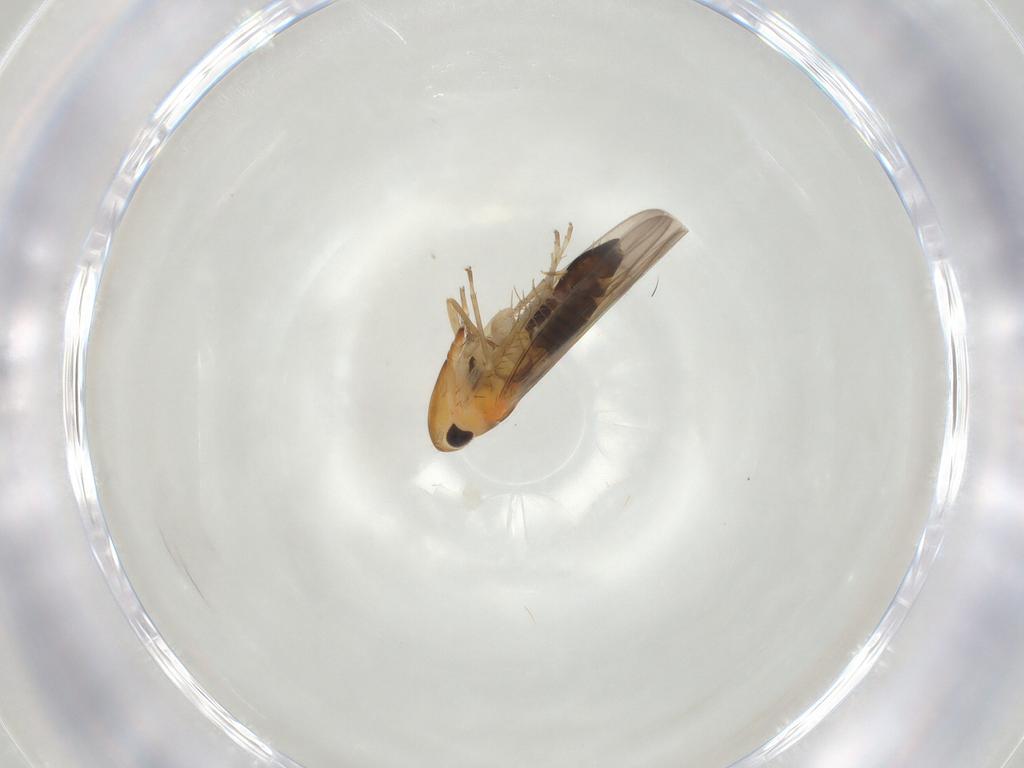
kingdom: Animalia
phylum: Arthropoda
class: Insecta
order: Hemiptera
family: Cicadellidae
